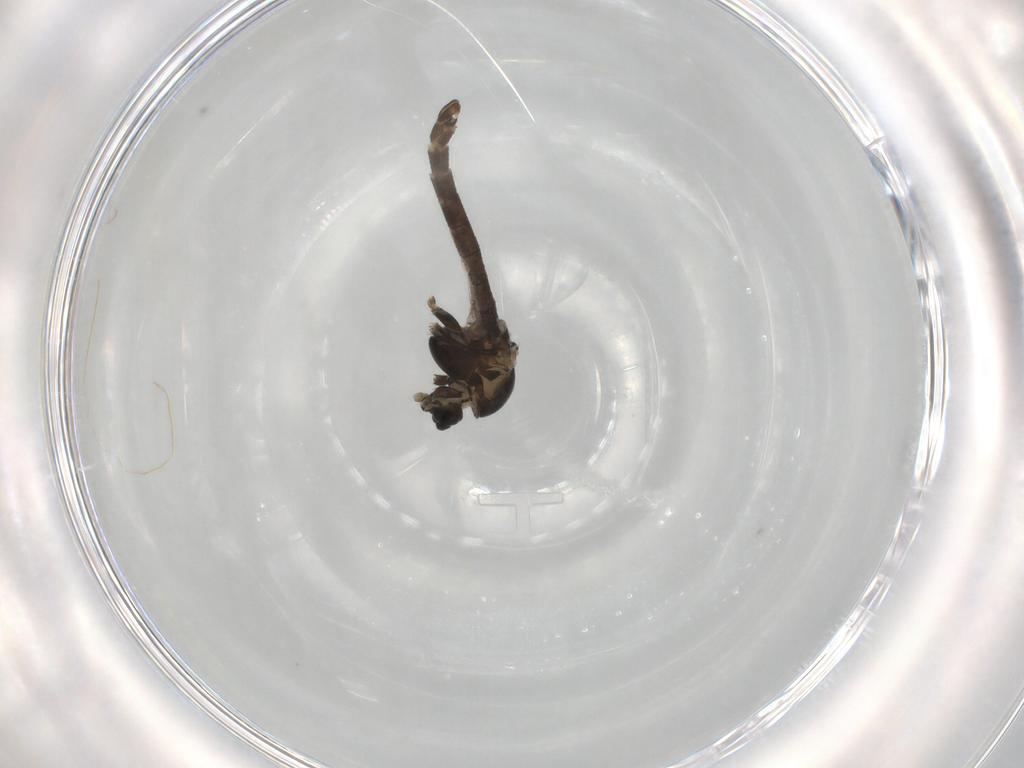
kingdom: Animalia
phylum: Arthropoda
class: Insecta
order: Diptera
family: Chironomidae
